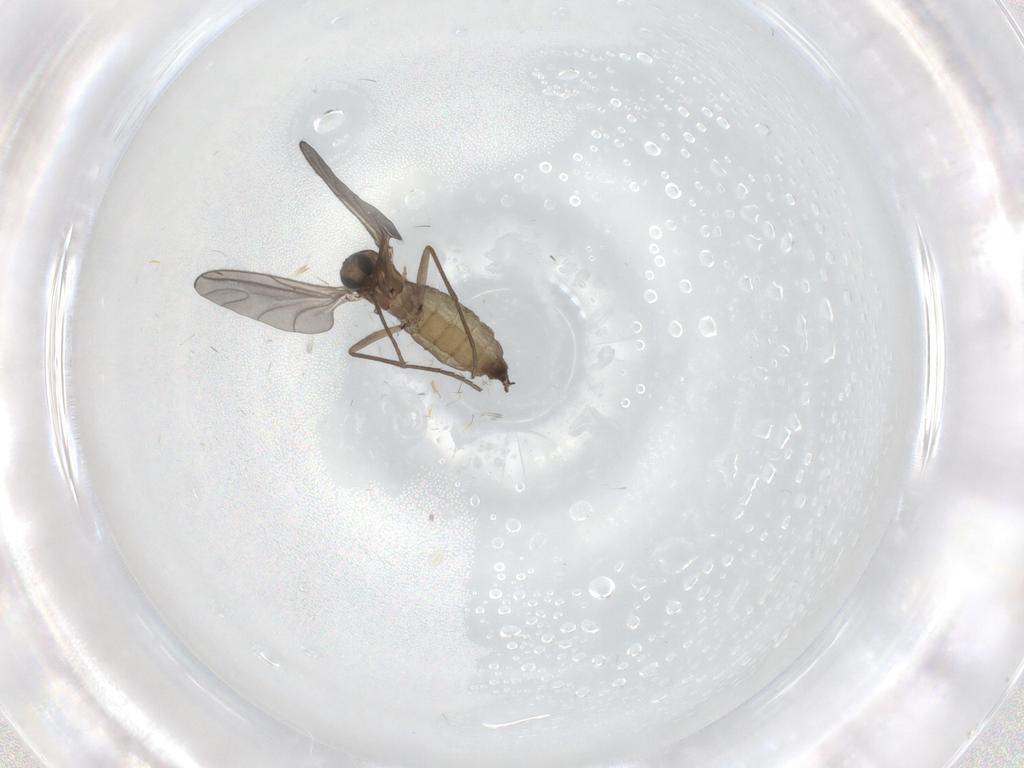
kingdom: Animalia
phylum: Arthropoda
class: Insecta
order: Diptera
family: Sciaridae
